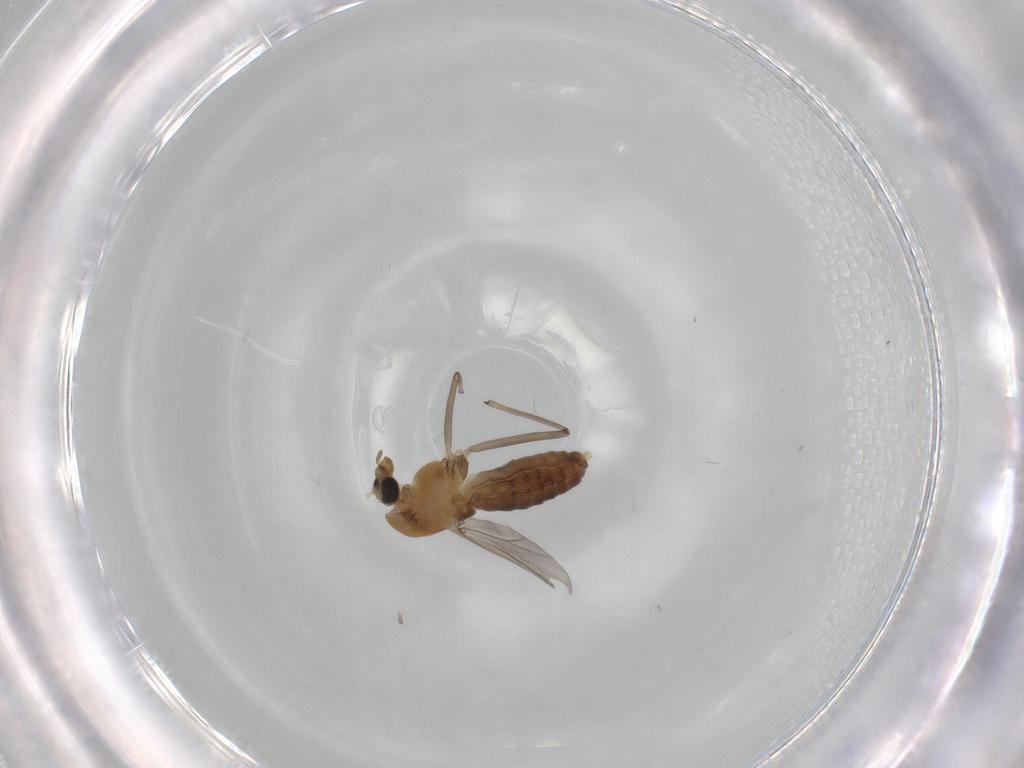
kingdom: Animalia
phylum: Arthropoda
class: Insecta
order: Diptera
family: Chironomidae
